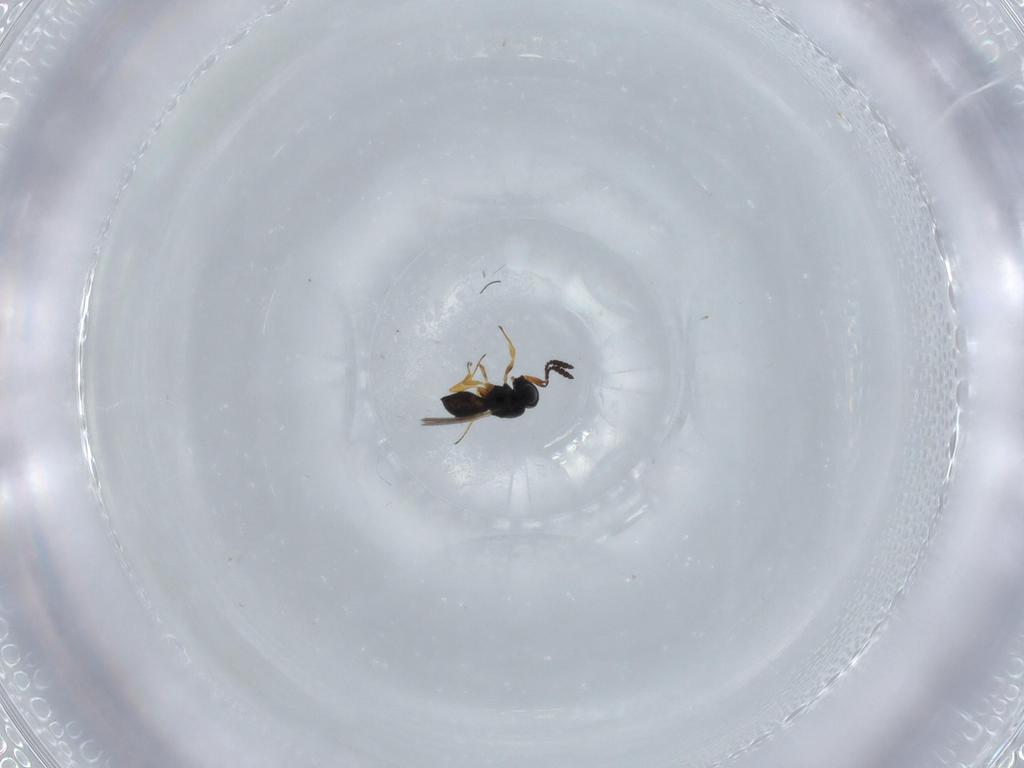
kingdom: Animalia
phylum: Arthropoda
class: Insecta
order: Hymenoptera
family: Scelionidae
